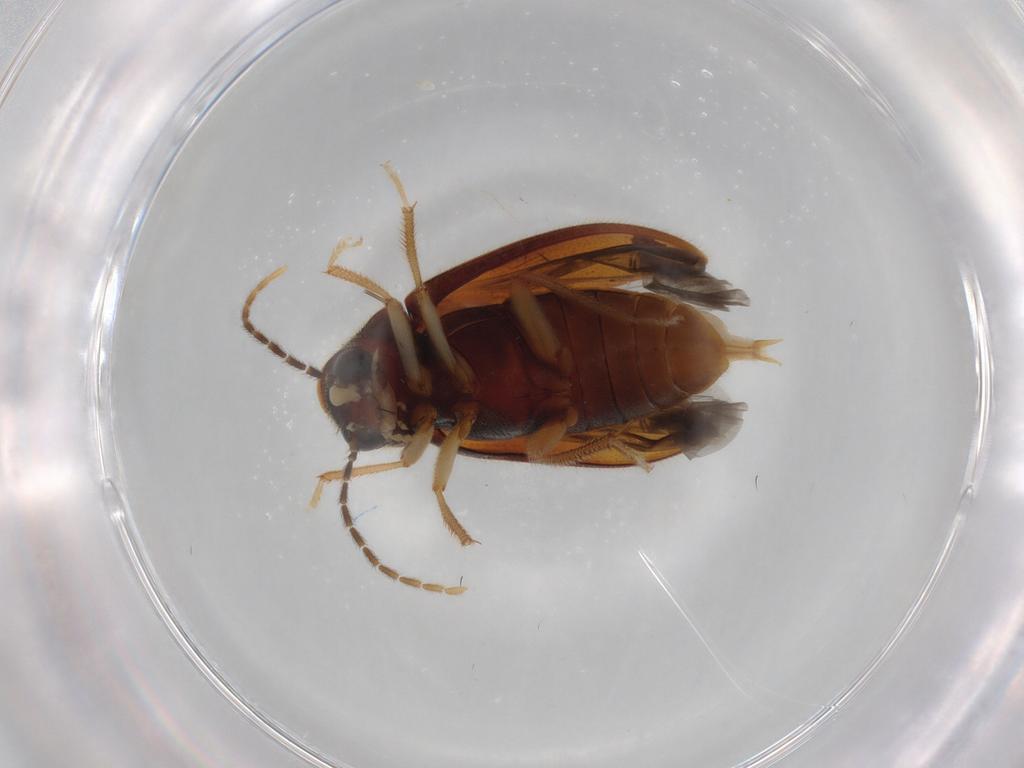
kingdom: Animalia
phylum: Arthropoda
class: Insecta
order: Coleoptera
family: Ptilodactylidae
